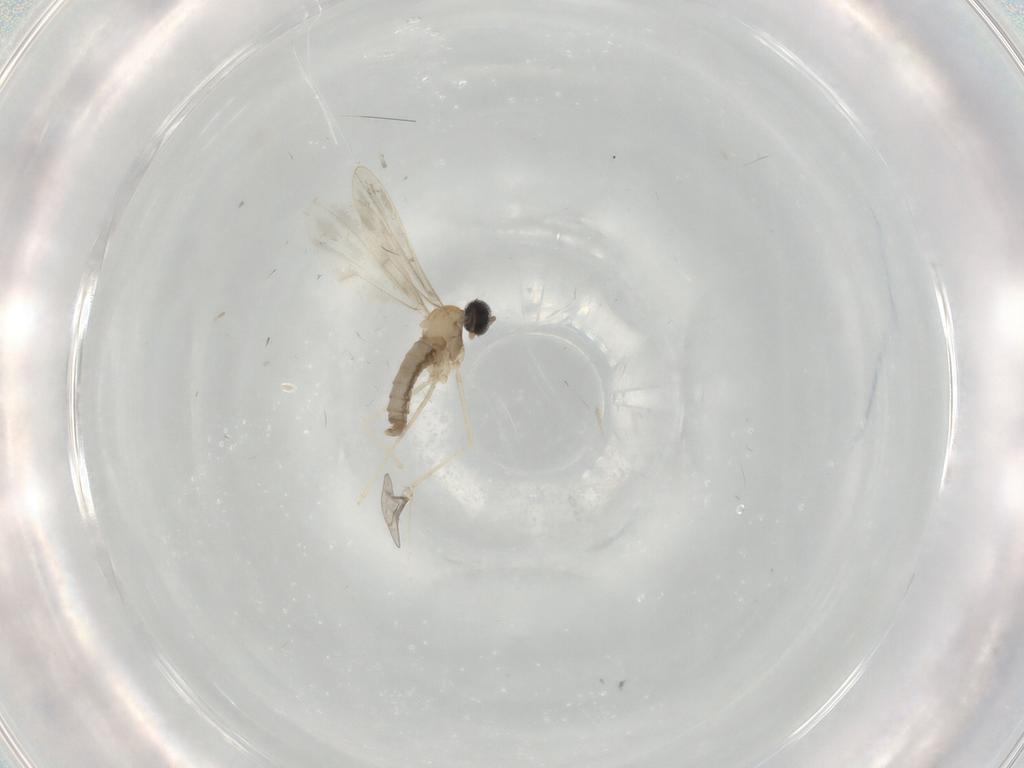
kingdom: Animalia
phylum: Arthropoda
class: Insecta
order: Diptera
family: Cecidomyiidae
